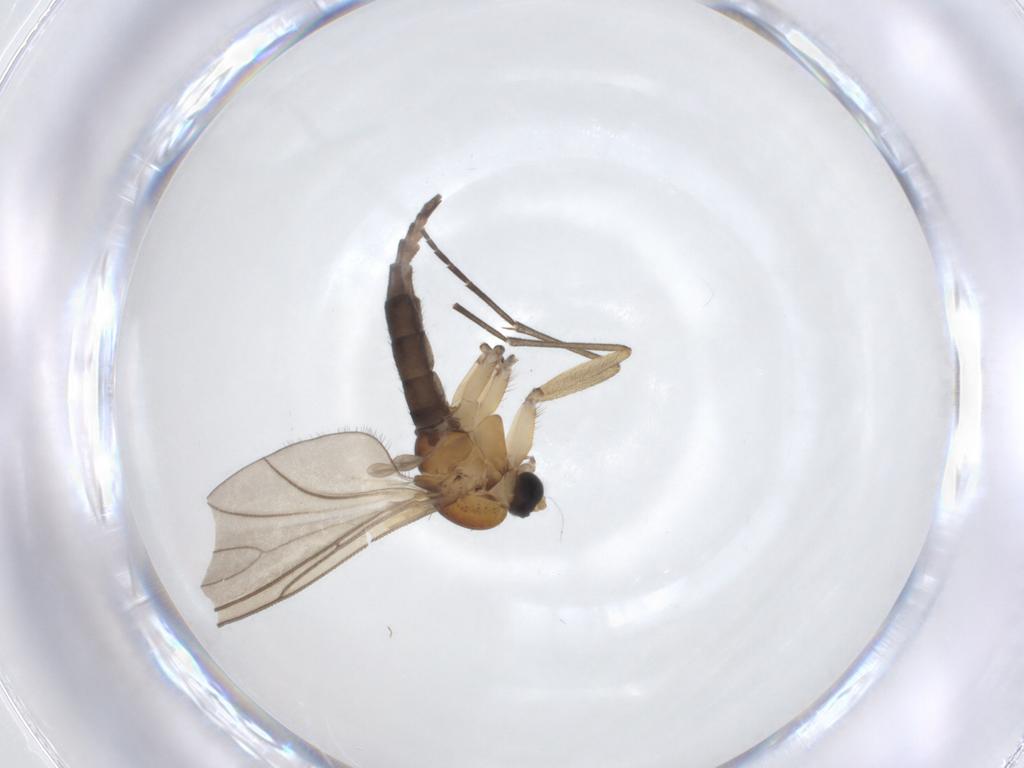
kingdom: Animalia
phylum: Arthropoda
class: Insecta
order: Diptera
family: Sciaridae
